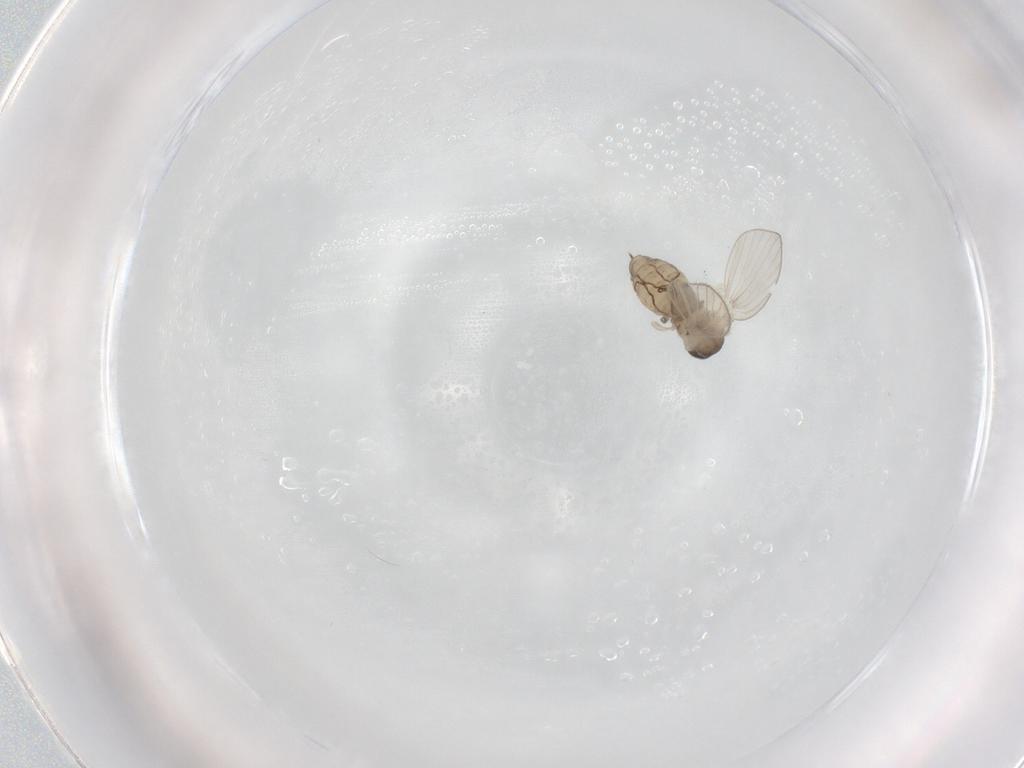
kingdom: Animalia
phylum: Arthropoda
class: Insecta
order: Diptera
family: Psychodidae
